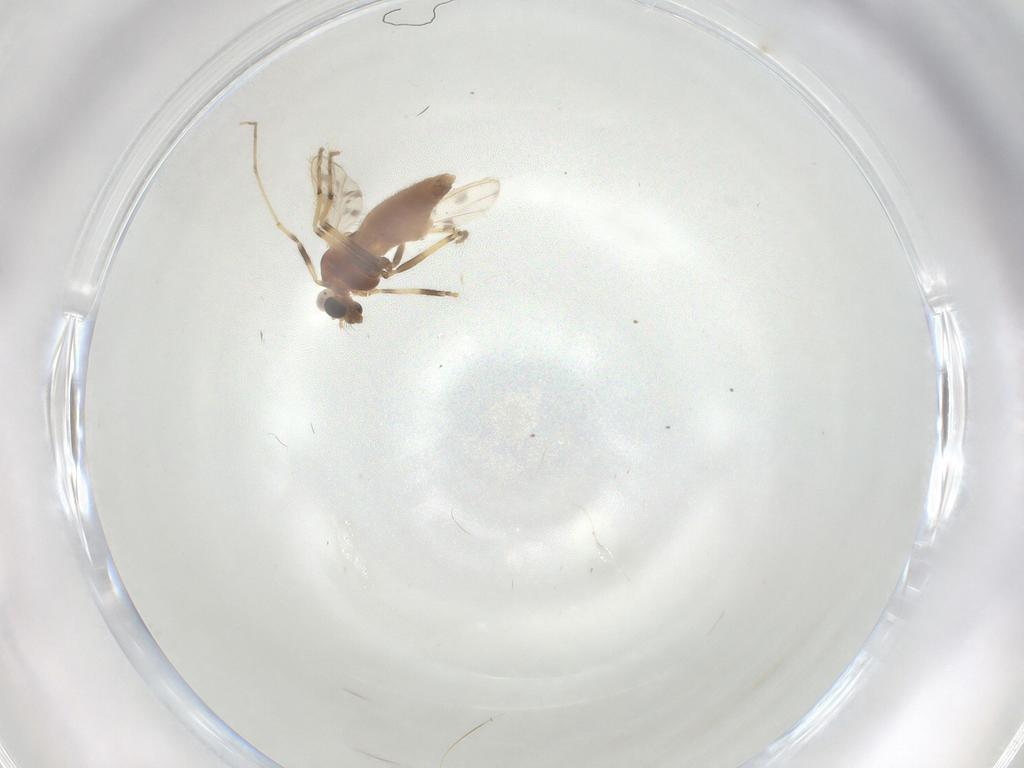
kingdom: Animalia
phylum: Arthropoda
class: Insecta
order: Diptera
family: Chironomidae
